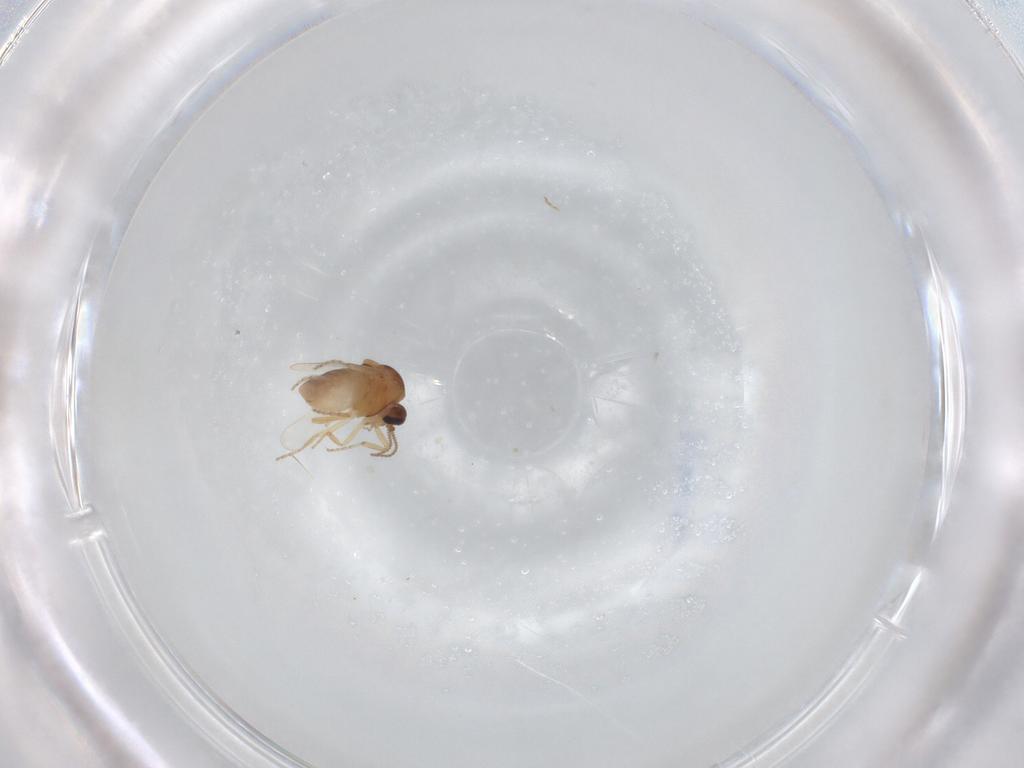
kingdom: Animalia
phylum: Arthropoda
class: Insecta
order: Diptera
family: Ceratopogonidae
